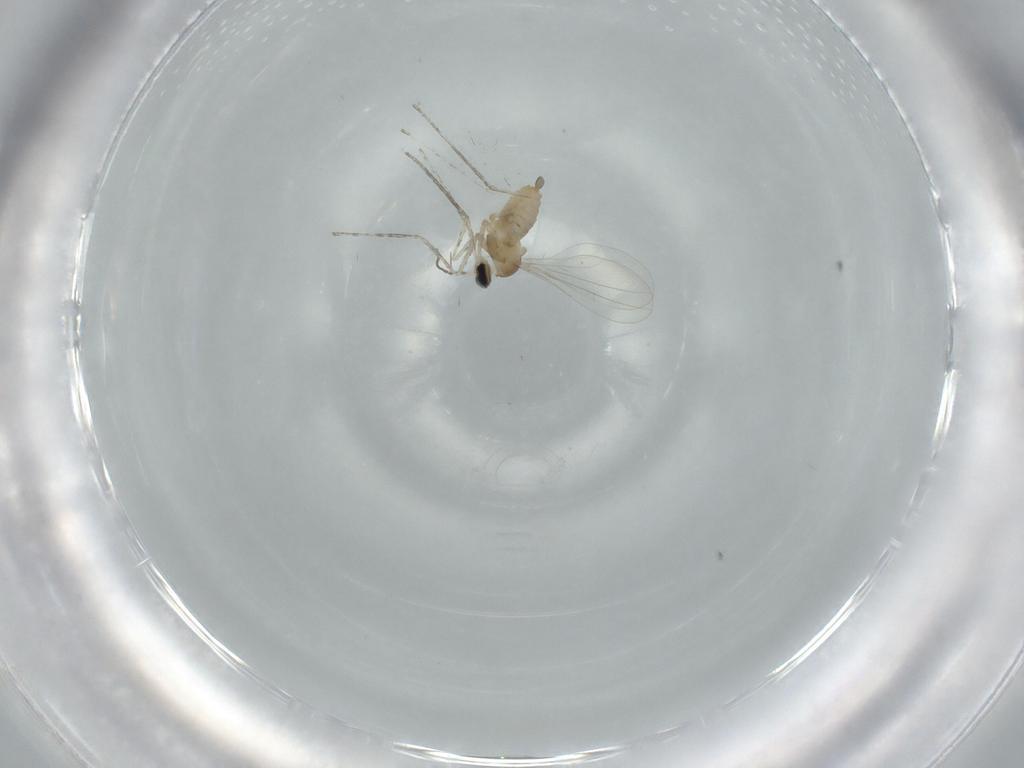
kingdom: Animalia
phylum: Arthropoda
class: Insecta
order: Diptera
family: Cecidomyiidae
